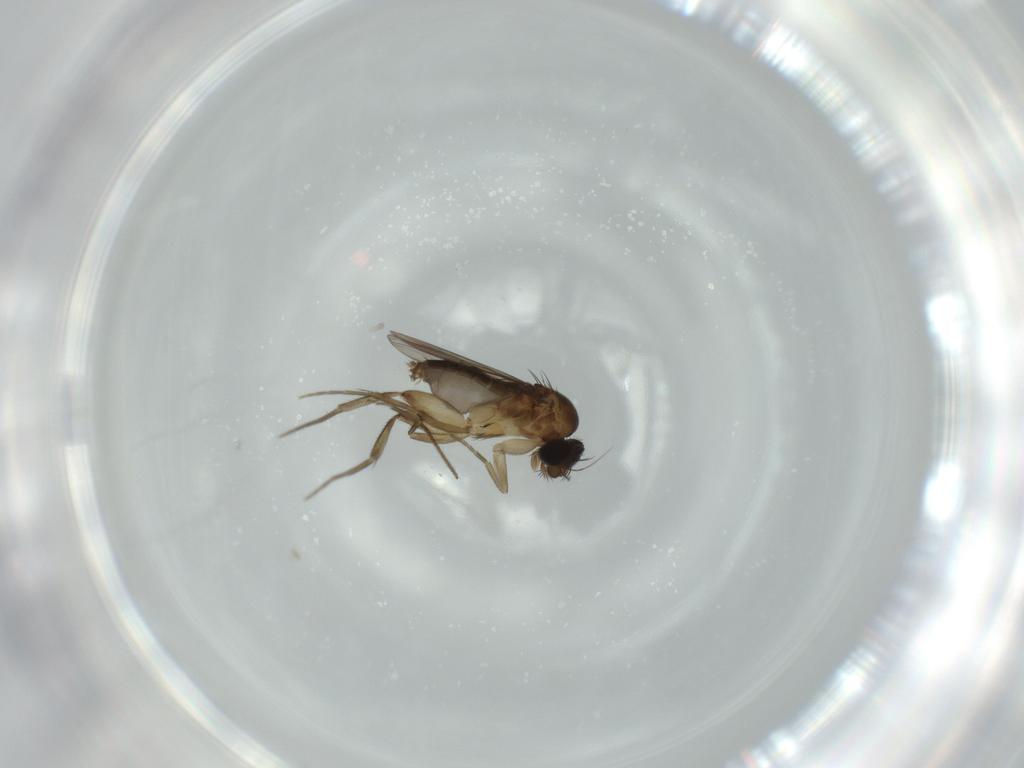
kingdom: Animalia
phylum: Arthropoda
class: Insecta
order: Diptera
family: Phoridae
